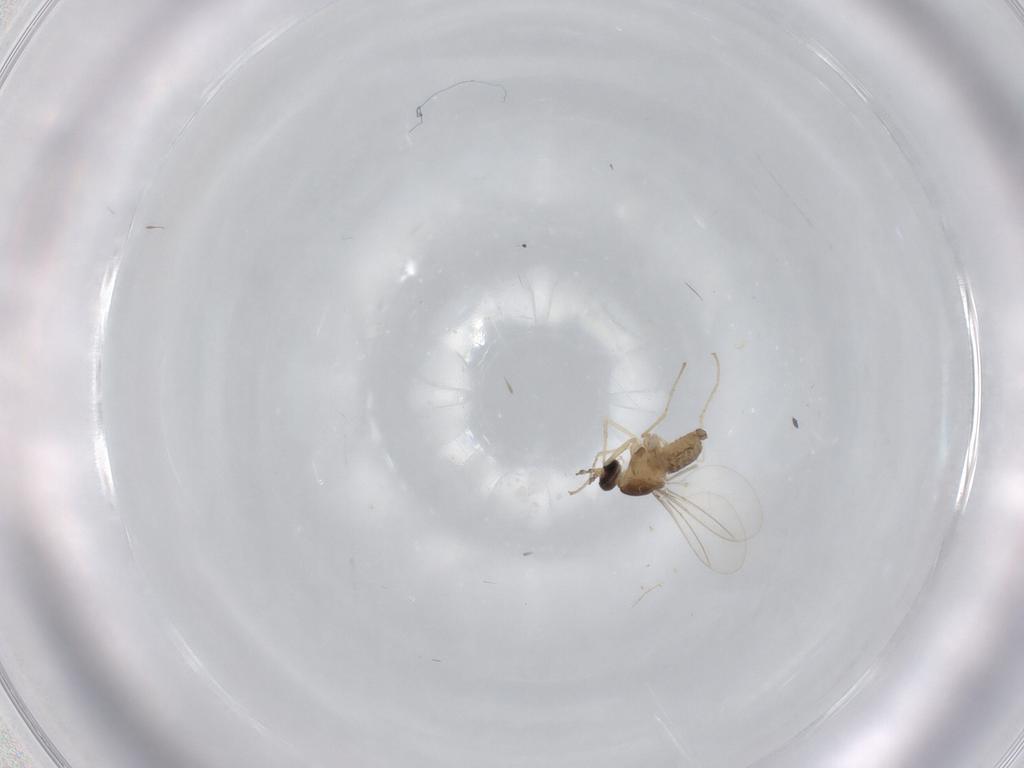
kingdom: Animalia
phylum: Arthropoda
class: Insecta
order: Diptera
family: Cecidomyiidae
